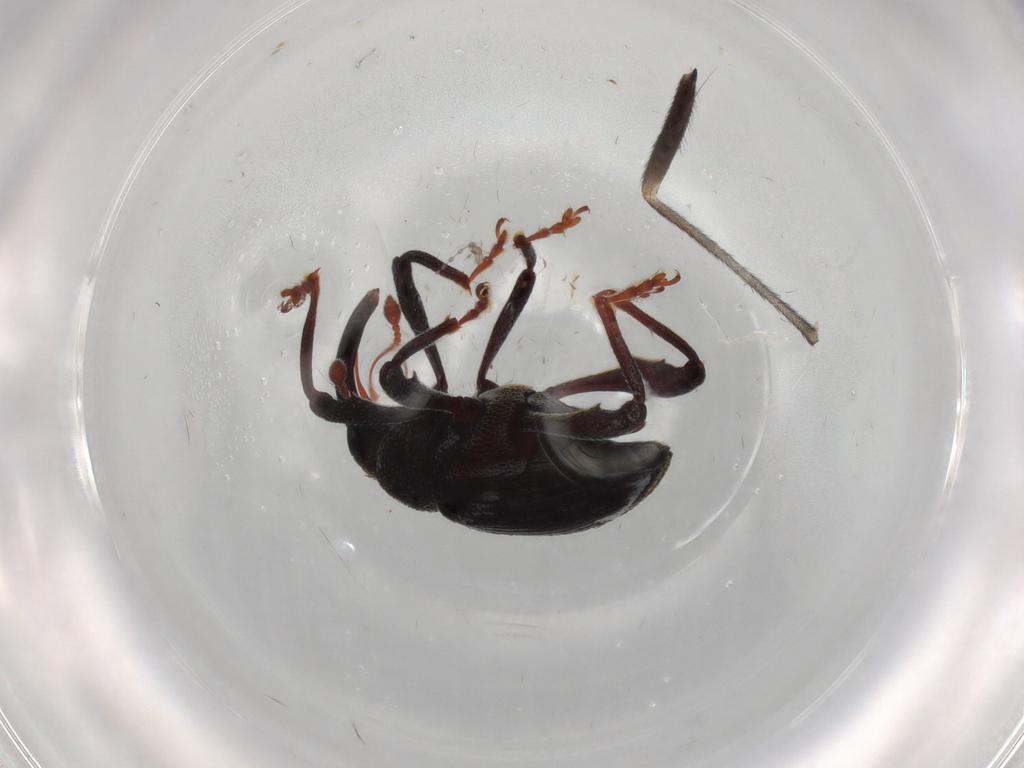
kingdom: Animalia
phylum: Arthropoda
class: Insecta
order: Coleoptera
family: Curculionidae
